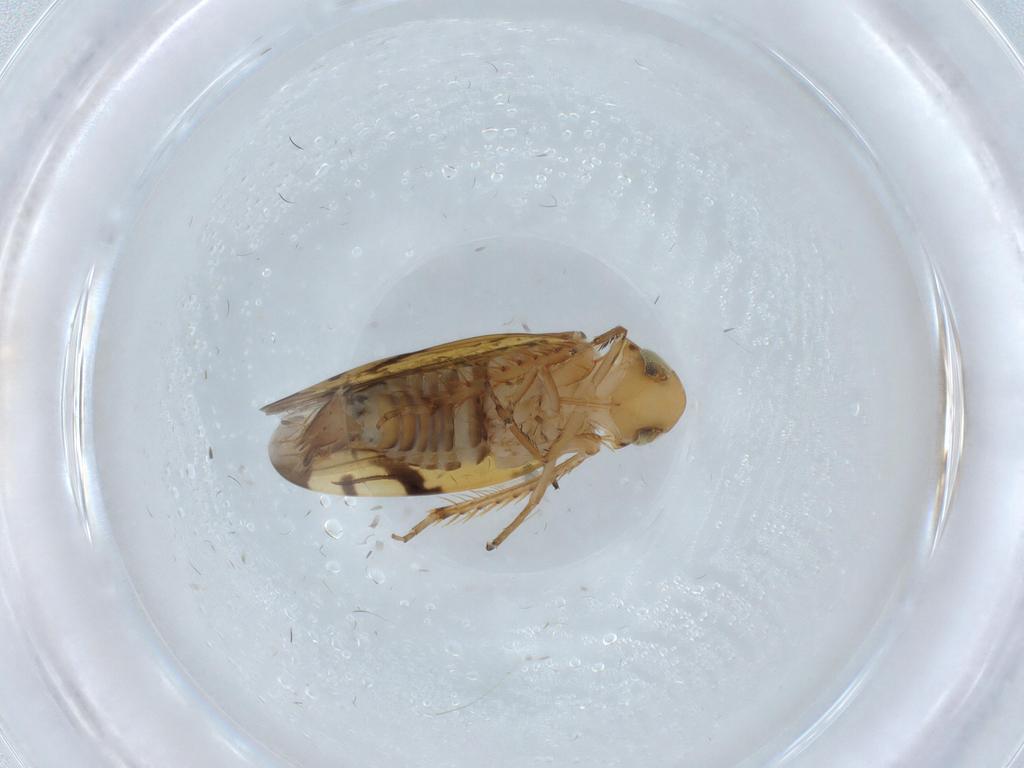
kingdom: Animalia
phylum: Arthropoda
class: Insecta
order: Hemiptera
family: Cicadellidae
